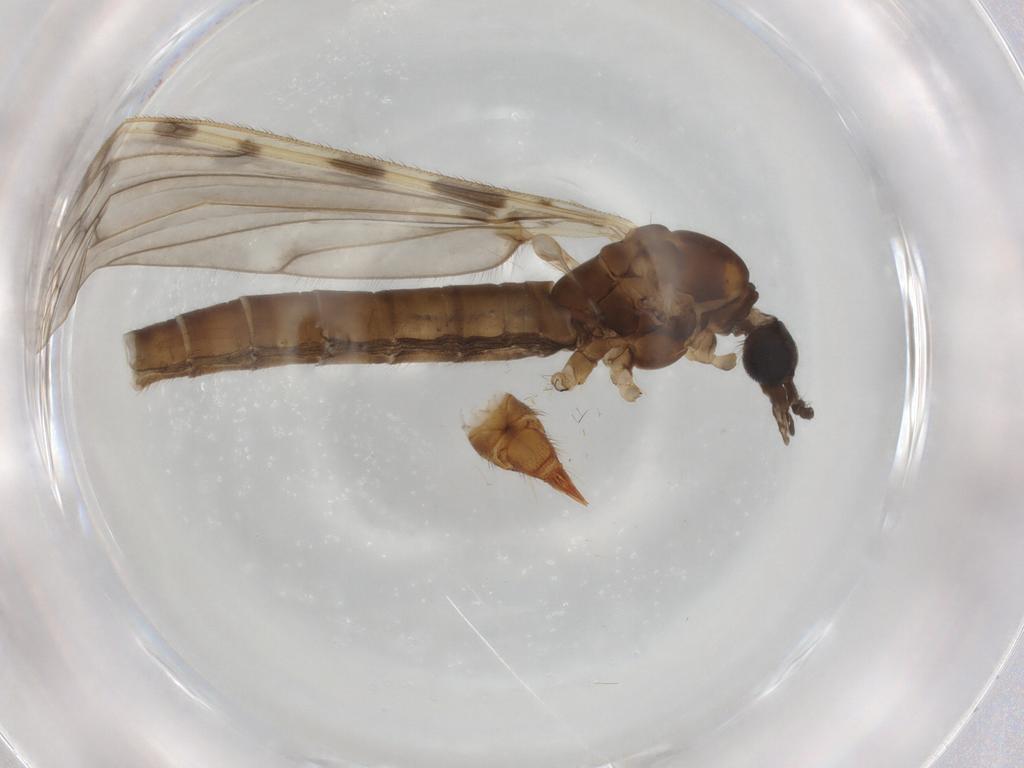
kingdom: Animalia
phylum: Arthropoda
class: Insecta
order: Diptera
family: Limoniidae
